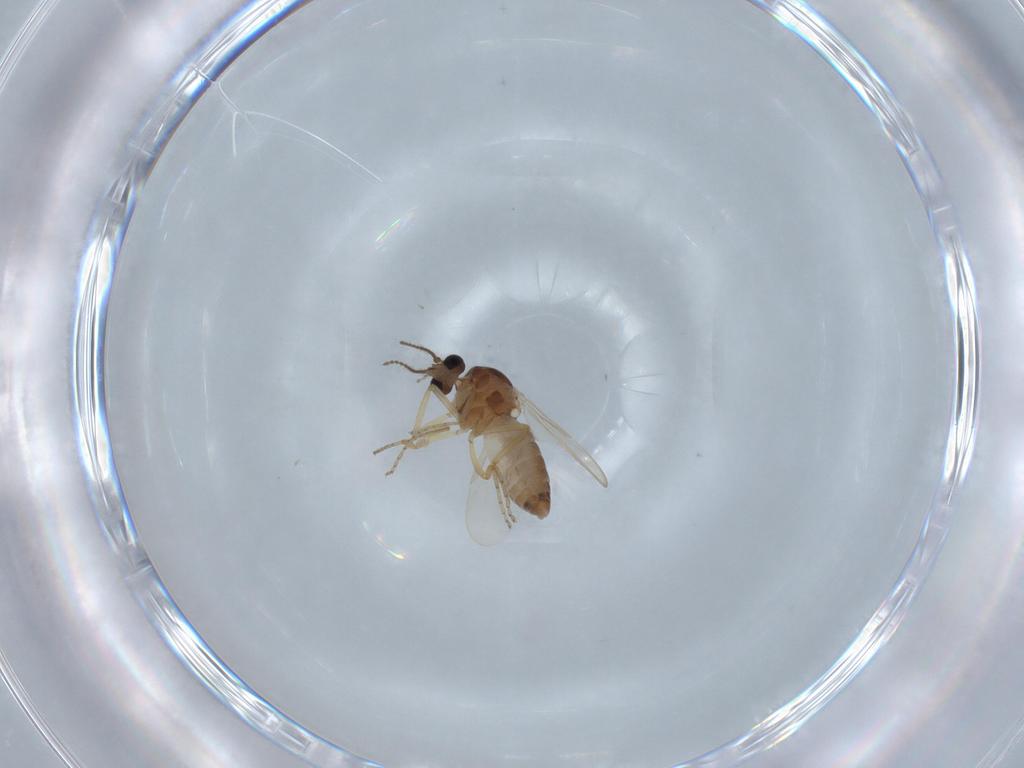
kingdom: Animalia
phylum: Arthropoda
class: Insecta
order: Diptera
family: Ceratopogonidae
